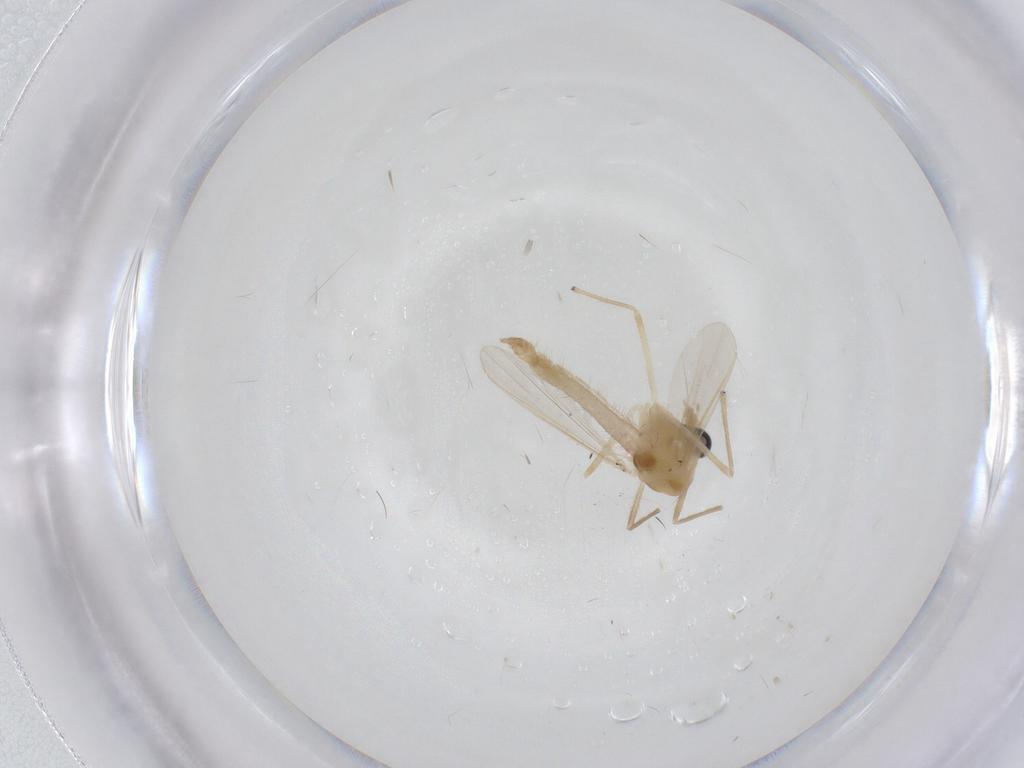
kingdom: Animalia
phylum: Arthropoda
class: Insecta
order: Diptera
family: Chironomidae
